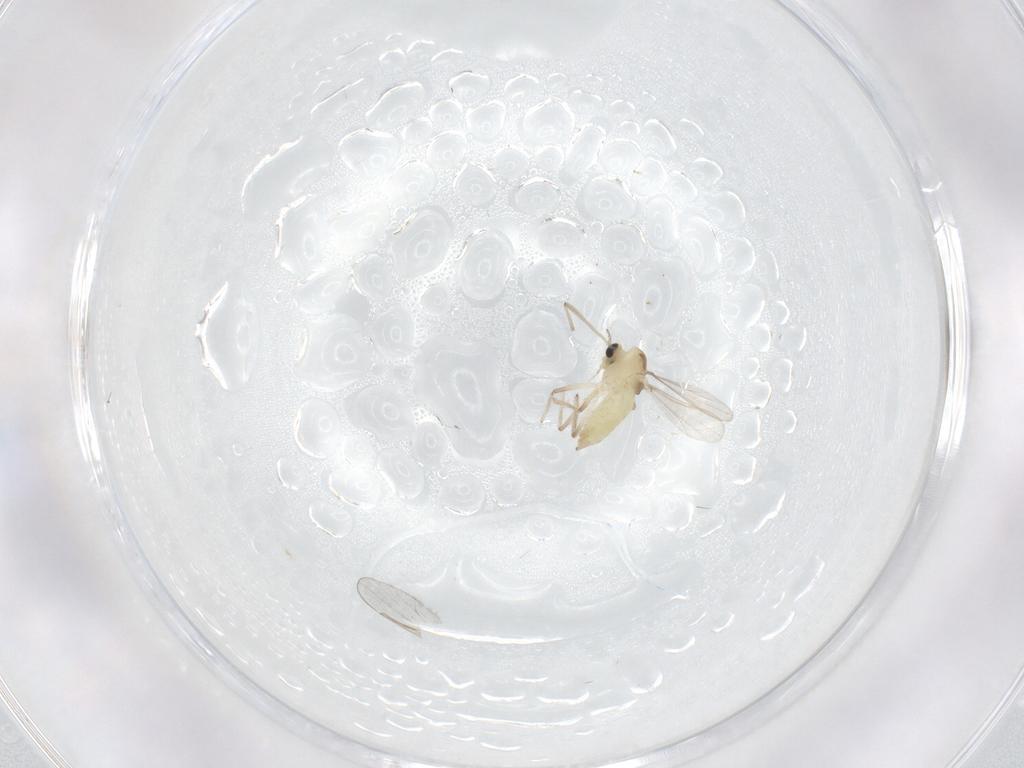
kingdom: Animalia
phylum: Arthropoda
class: Insecta
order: Diptera
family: Chironomidae
